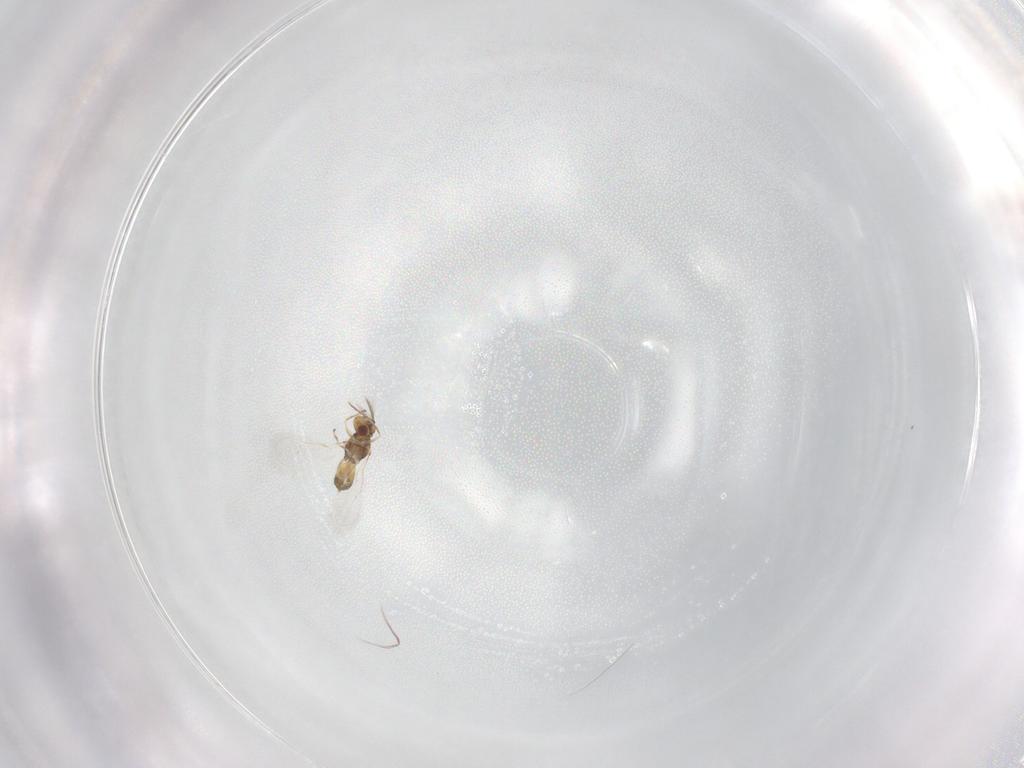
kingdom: Animalia
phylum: Arthropoda
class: Insecta
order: Hymenoptera
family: Eulophidae
